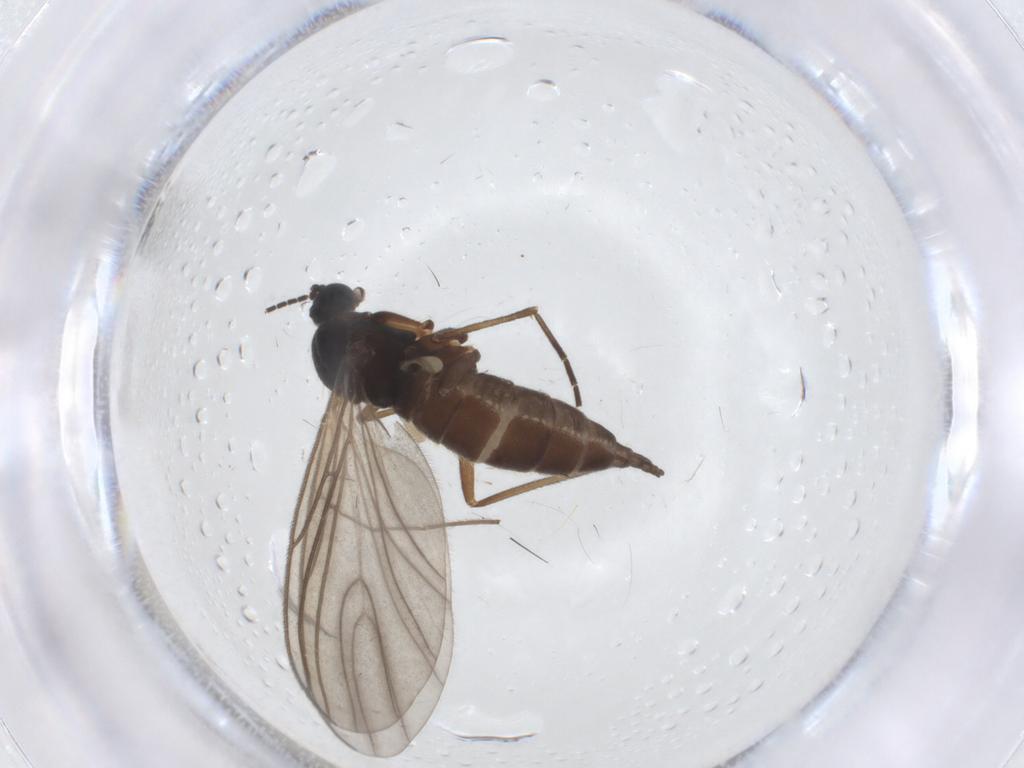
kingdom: Animalia
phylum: Arthropoda
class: Insecta
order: Diptera
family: Sciaridae
